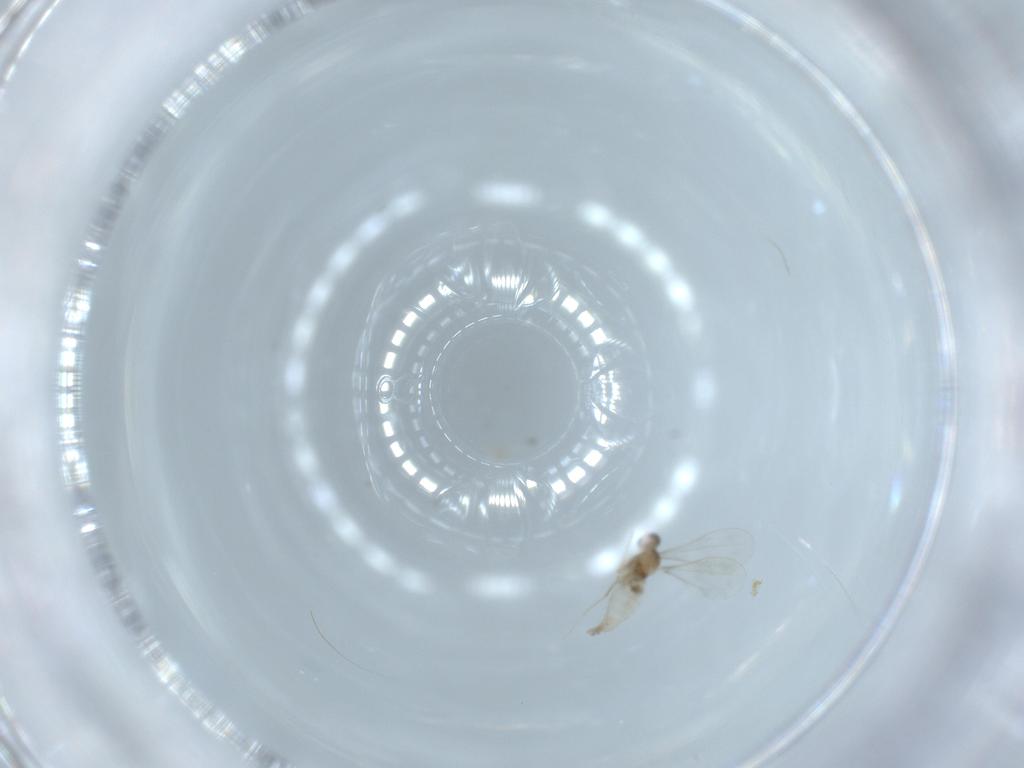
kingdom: Animalia
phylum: Arthropoda
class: Insecta
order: Diptera
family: Cecidomyiidae
